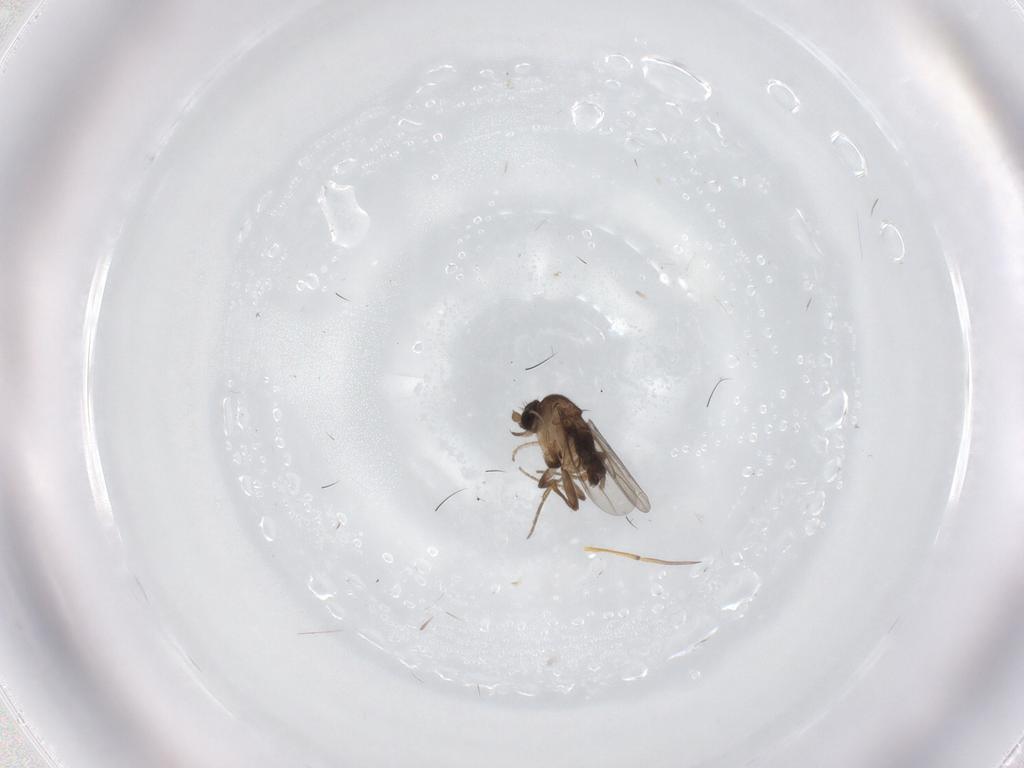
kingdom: Animalia
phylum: Arthropoda
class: Insecta
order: Diptera
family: Phoridae
